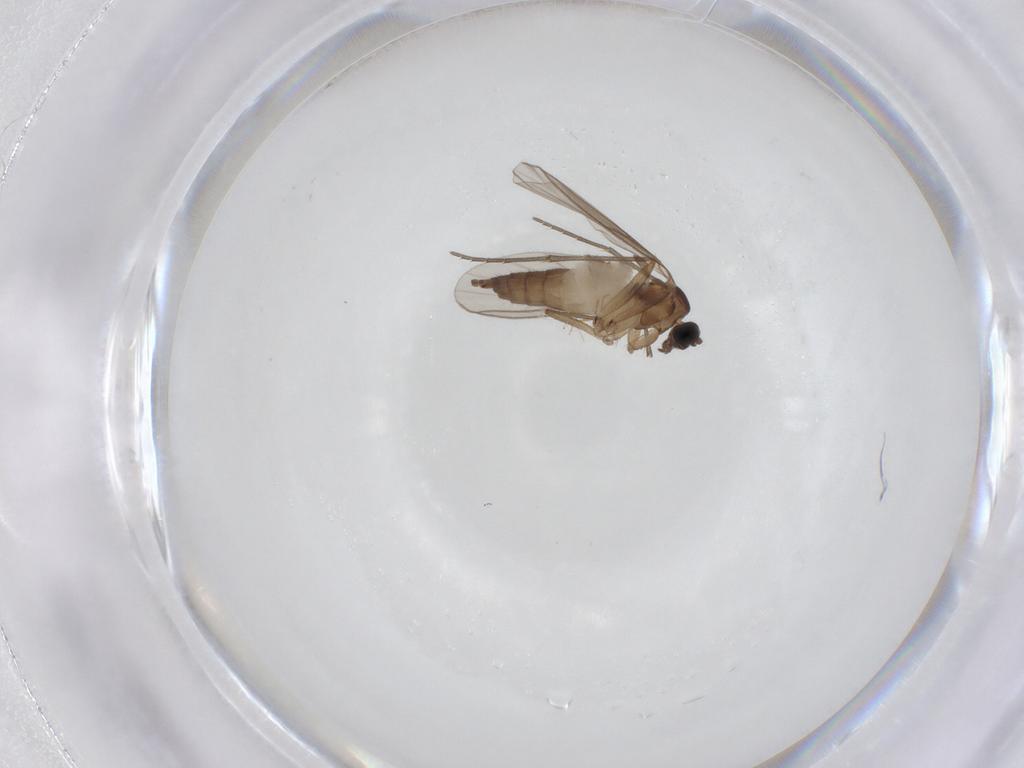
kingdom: Animalia
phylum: Arthropoda
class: Insecta
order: Diptera
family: Sciaridae
